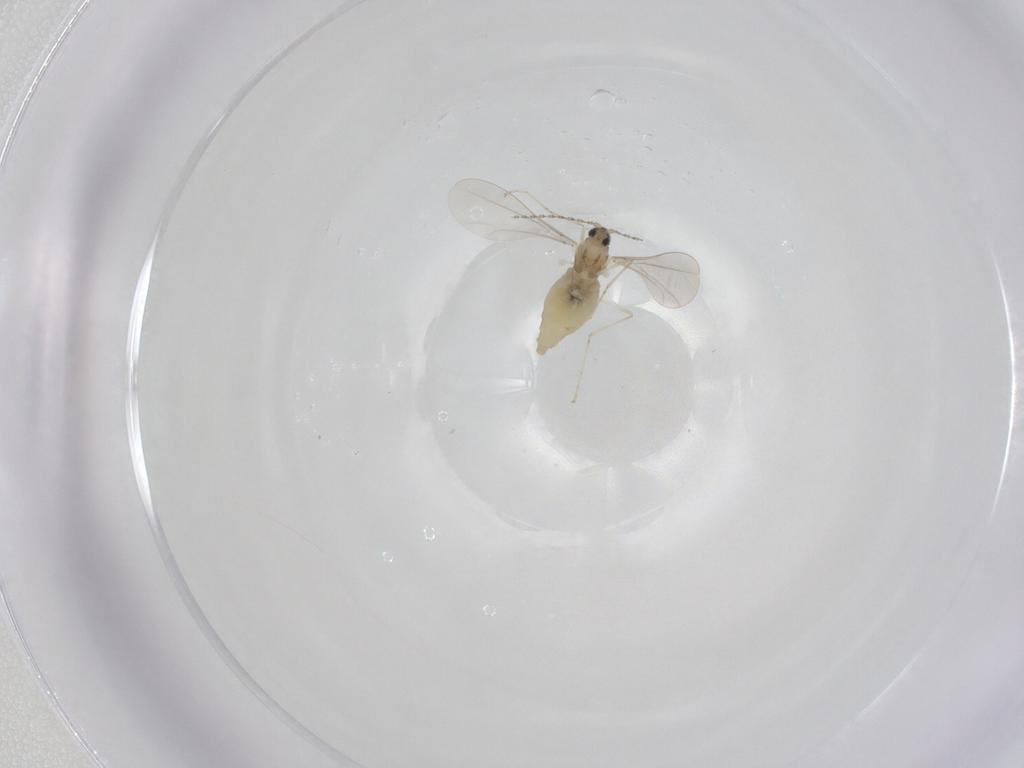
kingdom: Animalia
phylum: Arthropoda
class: Insecta
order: Diptera
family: Cecidomyiidae
